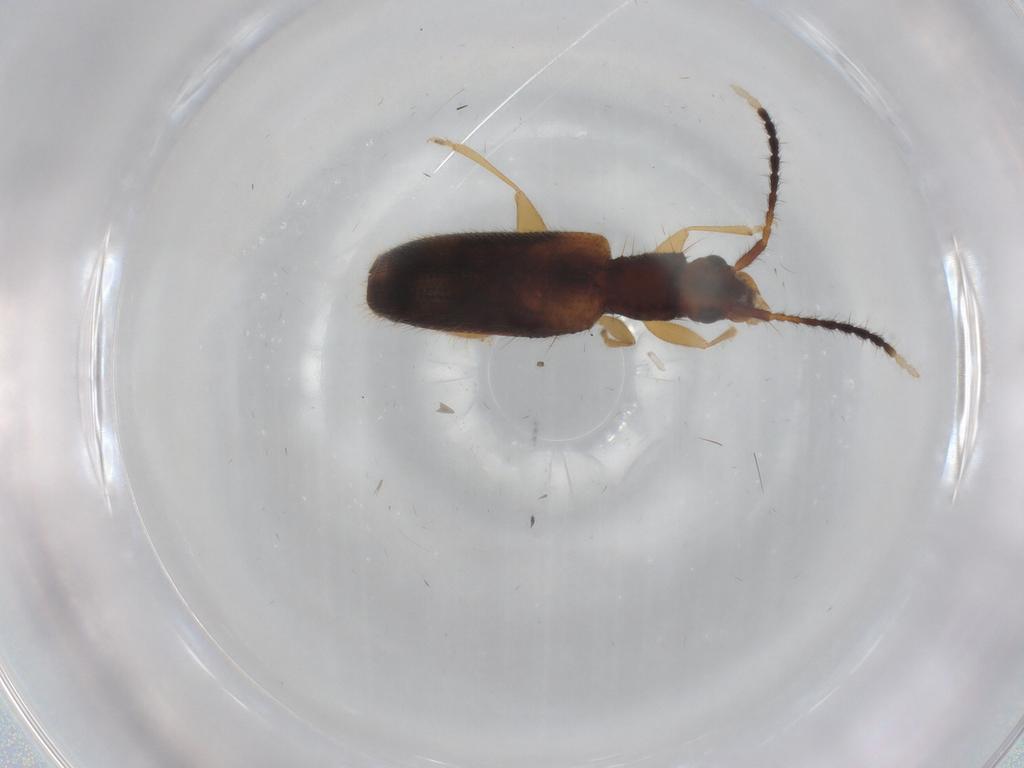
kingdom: Animalia
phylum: Arthropoda
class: Insecta
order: Coleoptera
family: Silvanidae
